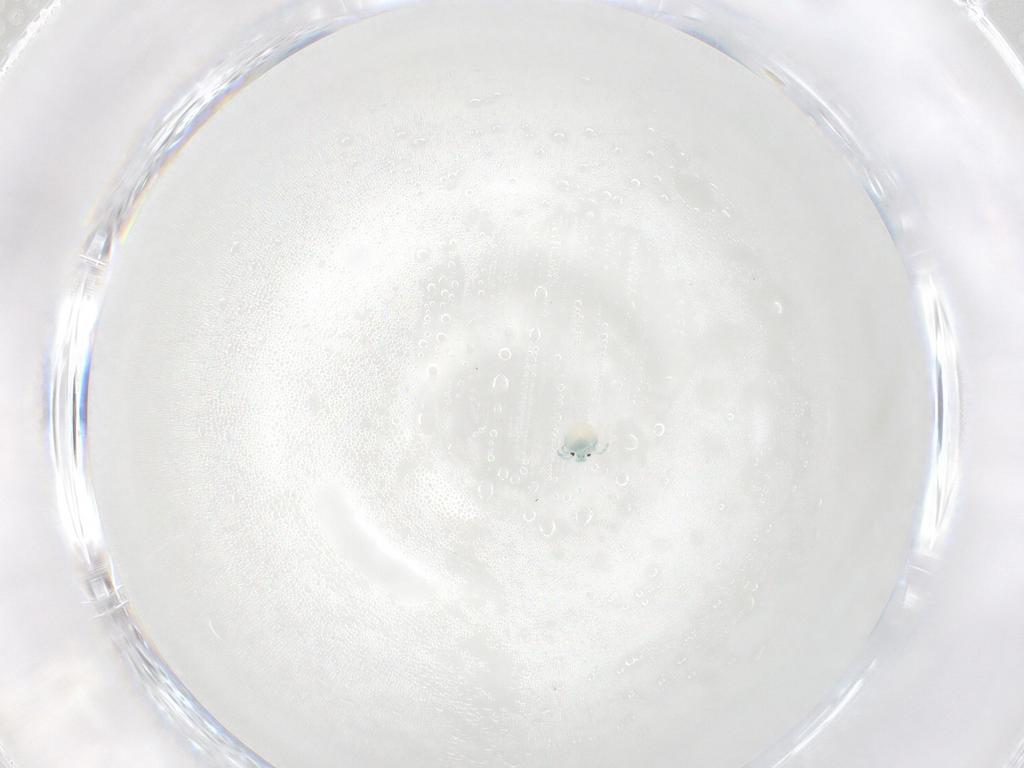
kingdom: Animalia
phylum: Arthropoda
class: Arachnida
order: Trombidiformes
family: Arrenuridae
